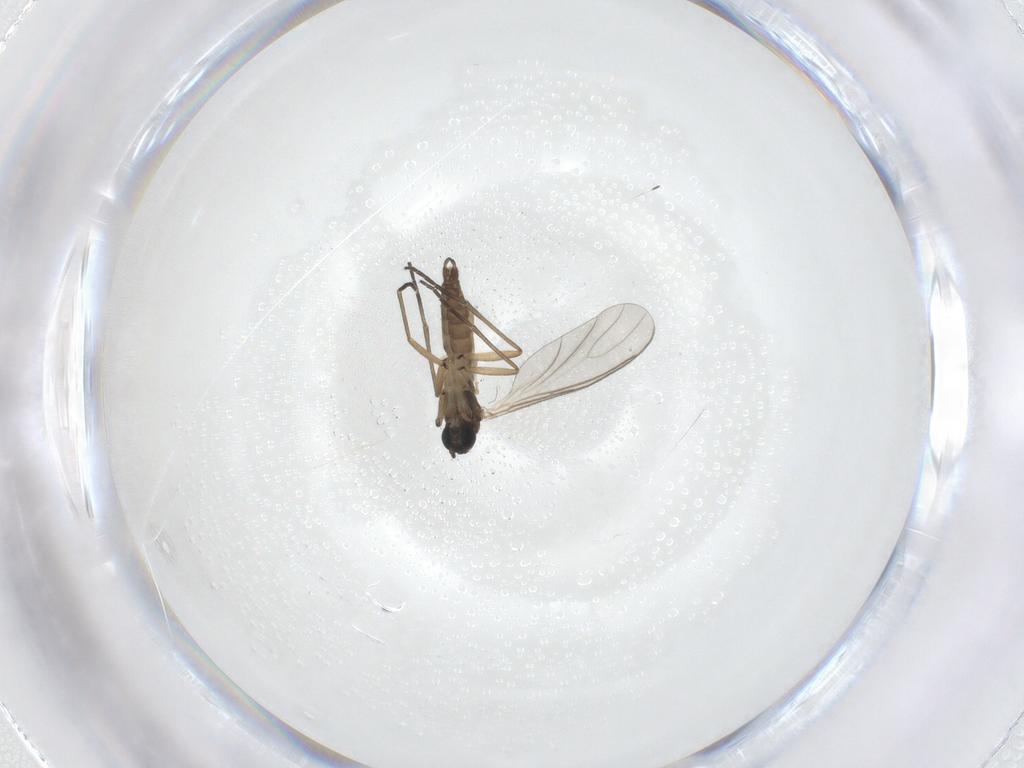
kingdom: Animalia
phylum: Arthropoda
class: Insecta
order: Diptera
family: Sciaridae
